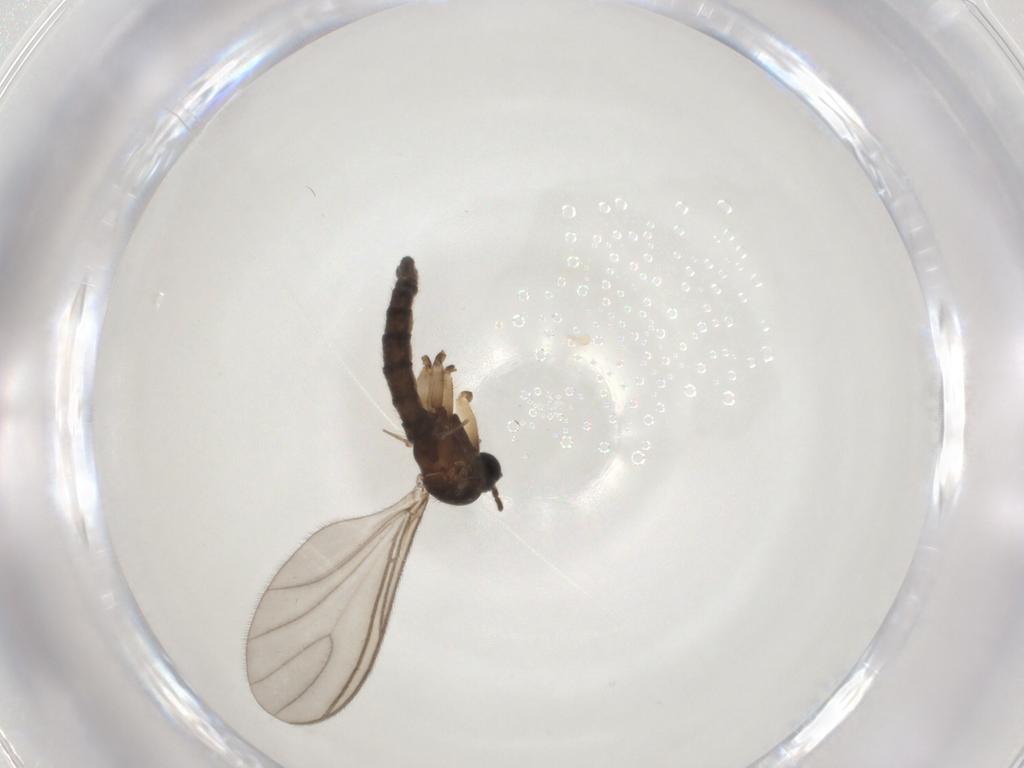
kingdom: Animalia
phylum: Arthropoda
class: Insecta
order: Diptera
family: Sciaridae
